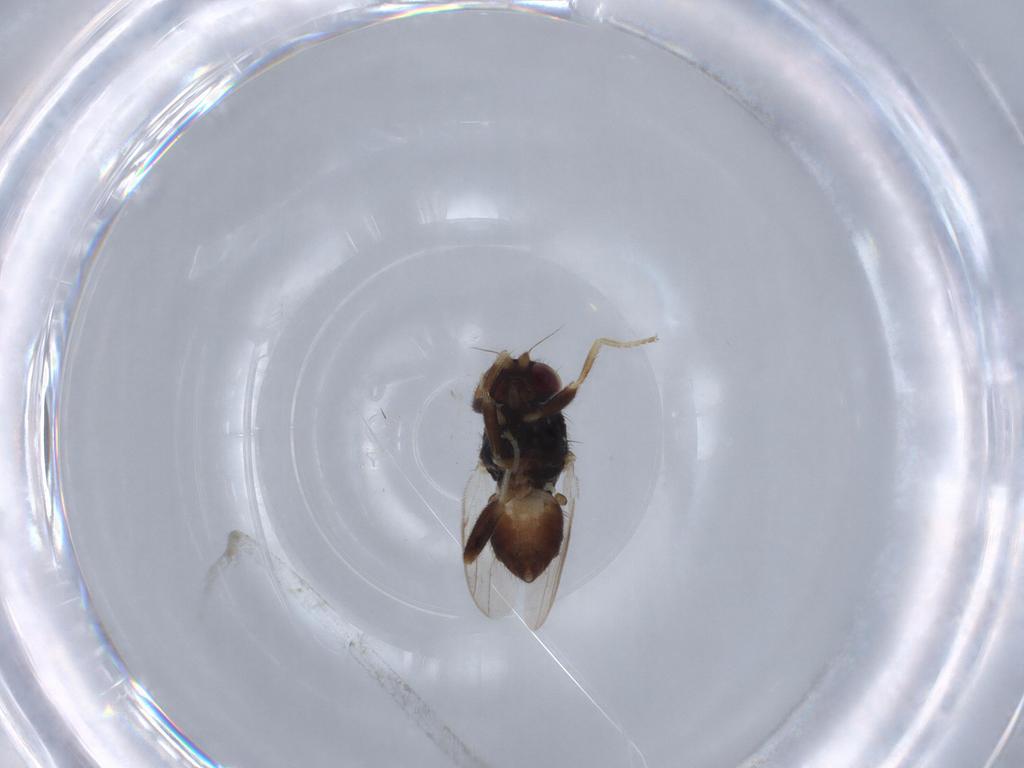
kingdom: Animalia
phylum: Arthropoda
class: Insecta
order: Diptera
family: Chloropidae
